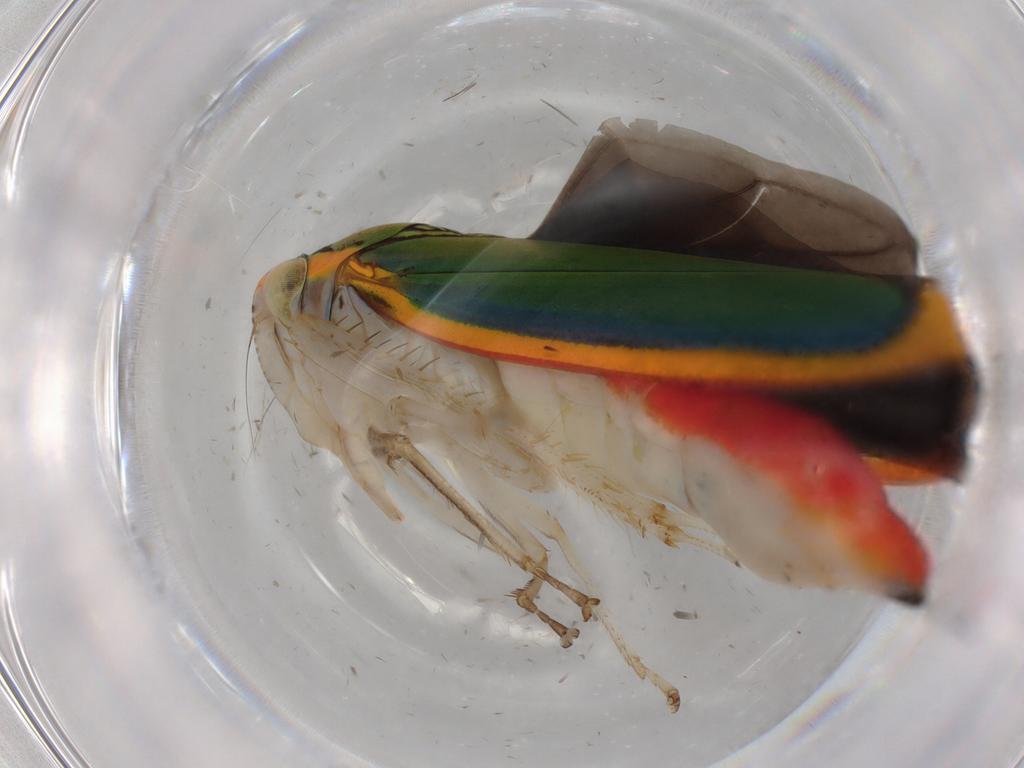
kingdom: Animalia
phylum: Arthropoda
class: Insecta
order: Hemiptera
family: Cicadellidae
